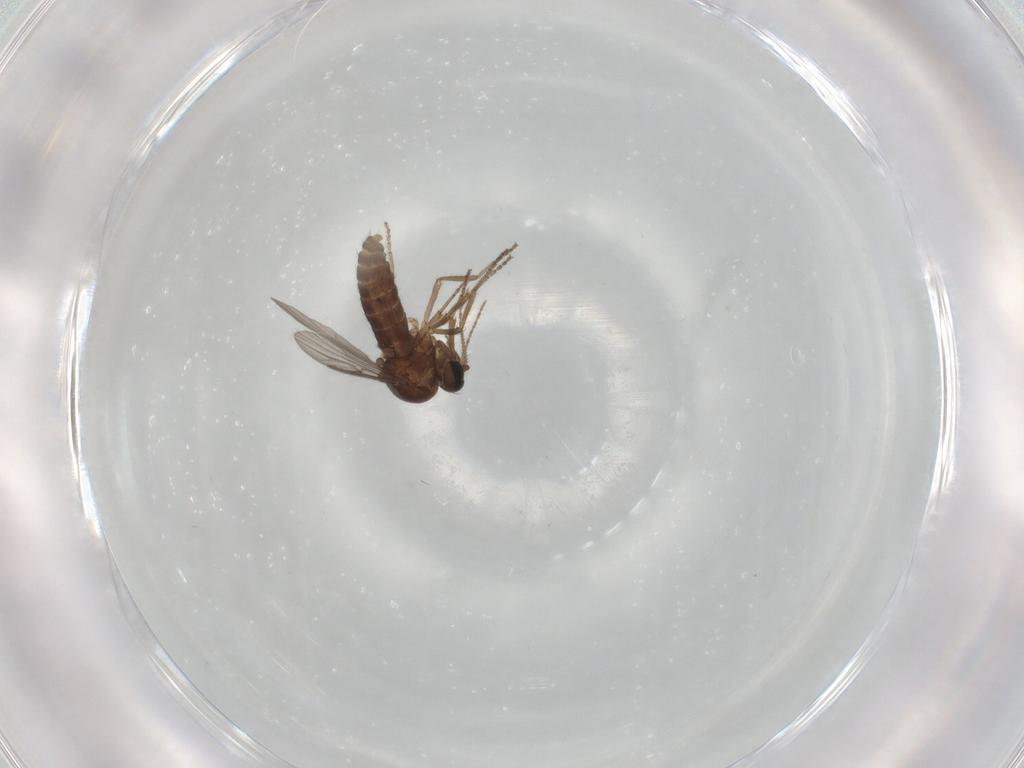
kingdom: Animalia
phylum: Arthropoda
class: Insecta
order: Diptera
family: Ceratopogonidae
